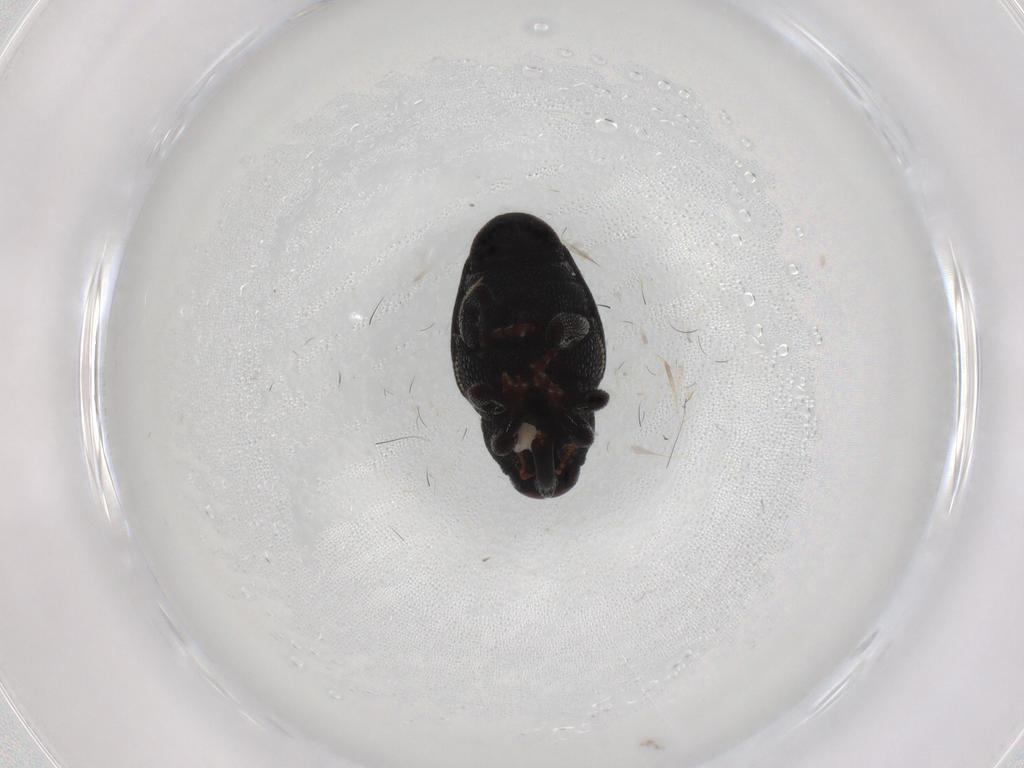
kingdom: Animalia
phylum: Arthropoda
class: Insecta
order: Coleoptera
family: Curculionidae
